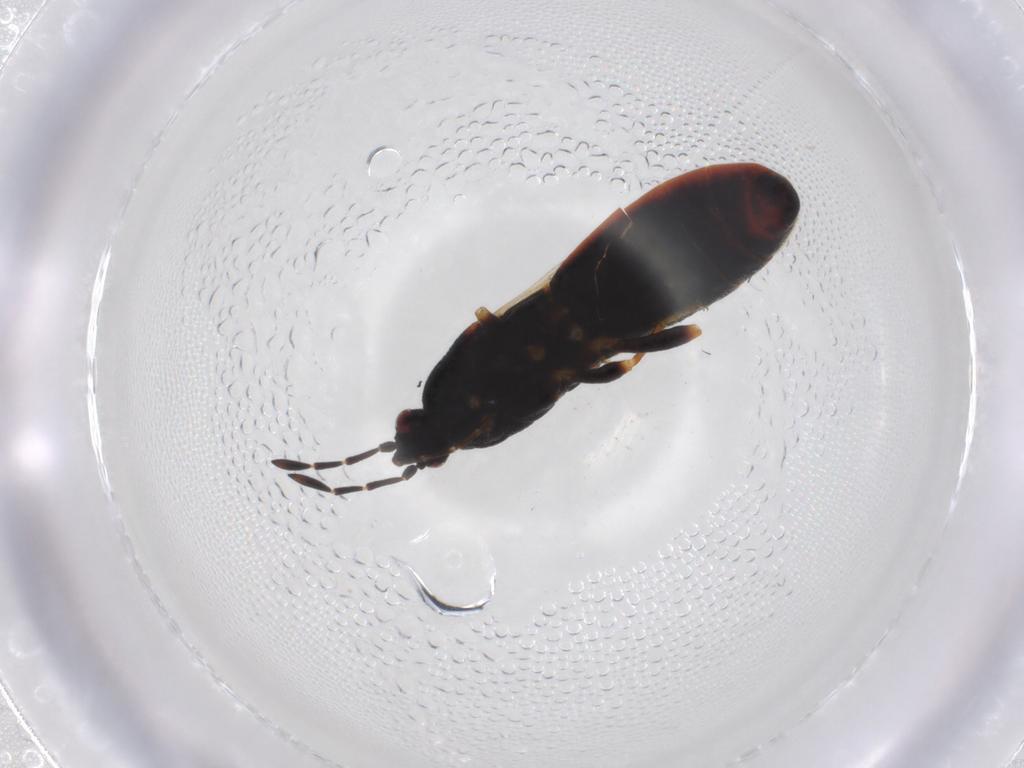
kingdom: Animalia
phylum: Arthropoda
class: Insecta
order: Hemiptera
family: Blissidae
